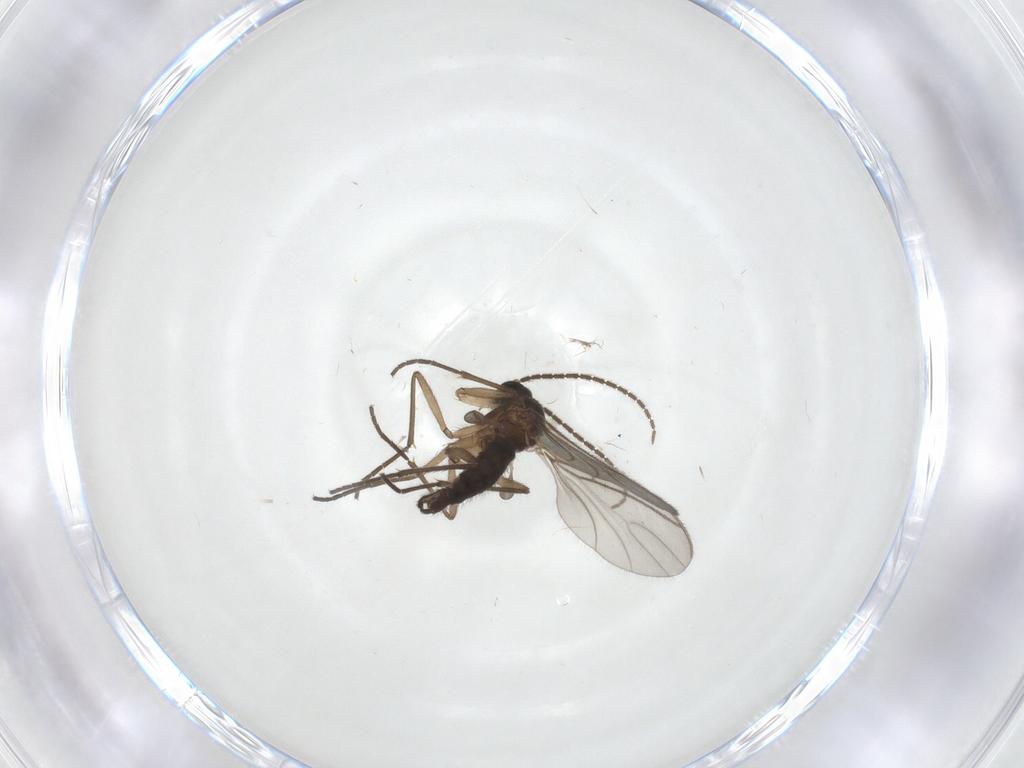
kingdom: Animalia
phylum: Arthropoda
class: Insecta
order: Diptera
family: Sciaridae
